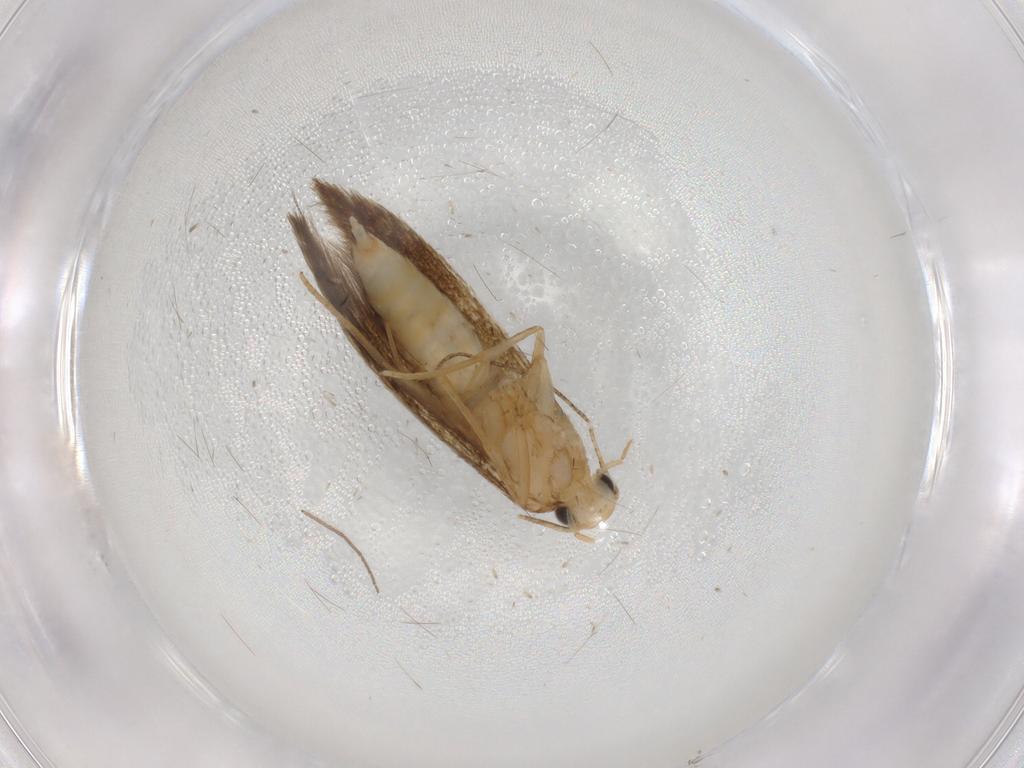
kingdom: Animalia
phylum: Arthropoda
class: Insecta
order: Lepidoptera
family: Tineidae
